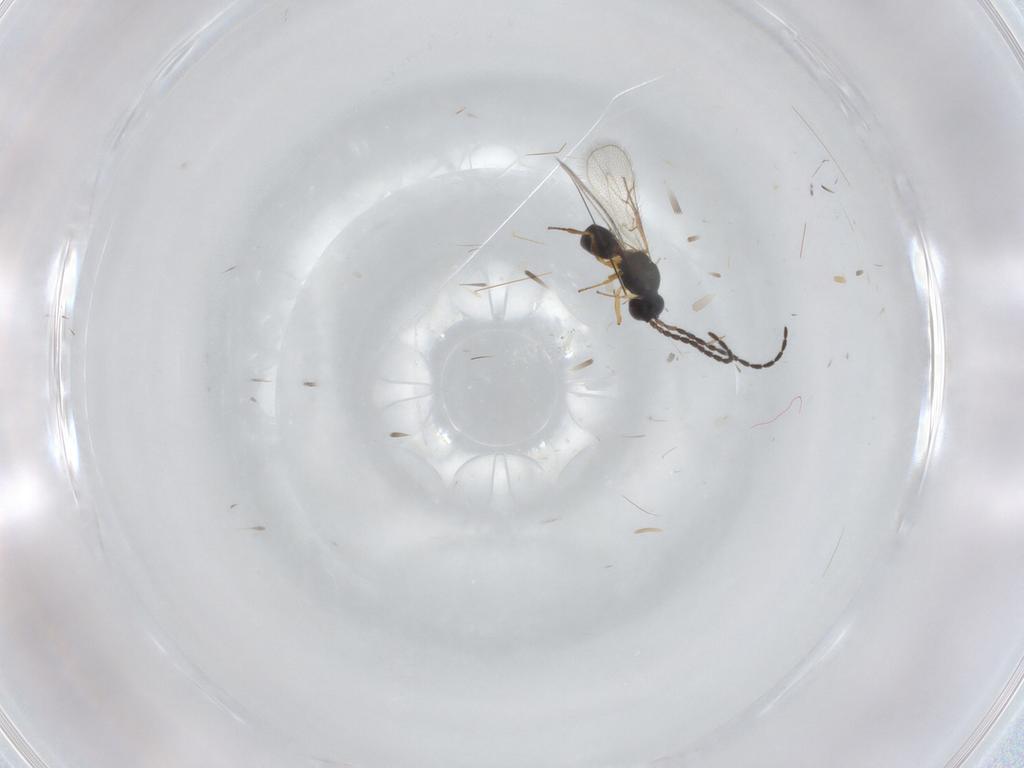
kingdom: Animalia
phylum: Arthropoda
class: Insecta
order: Hymenoptera
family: Figitidae
